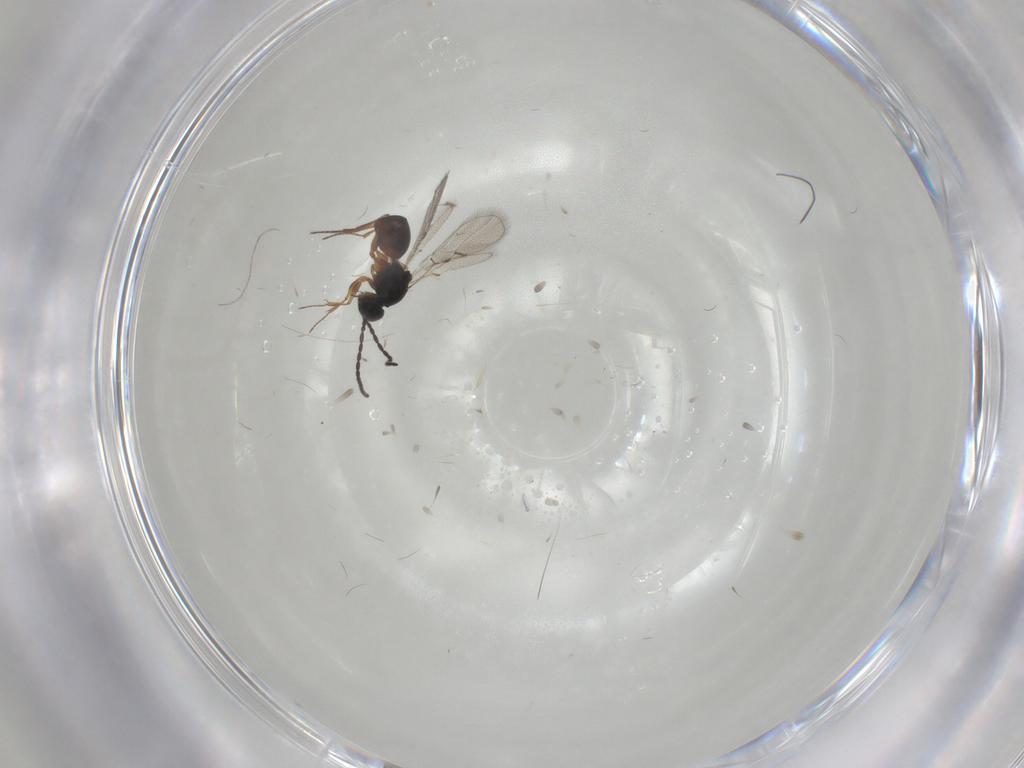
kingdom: Animalia
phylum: Arthropoda
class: Insecta
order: Hymenoptera
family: Figitidae
